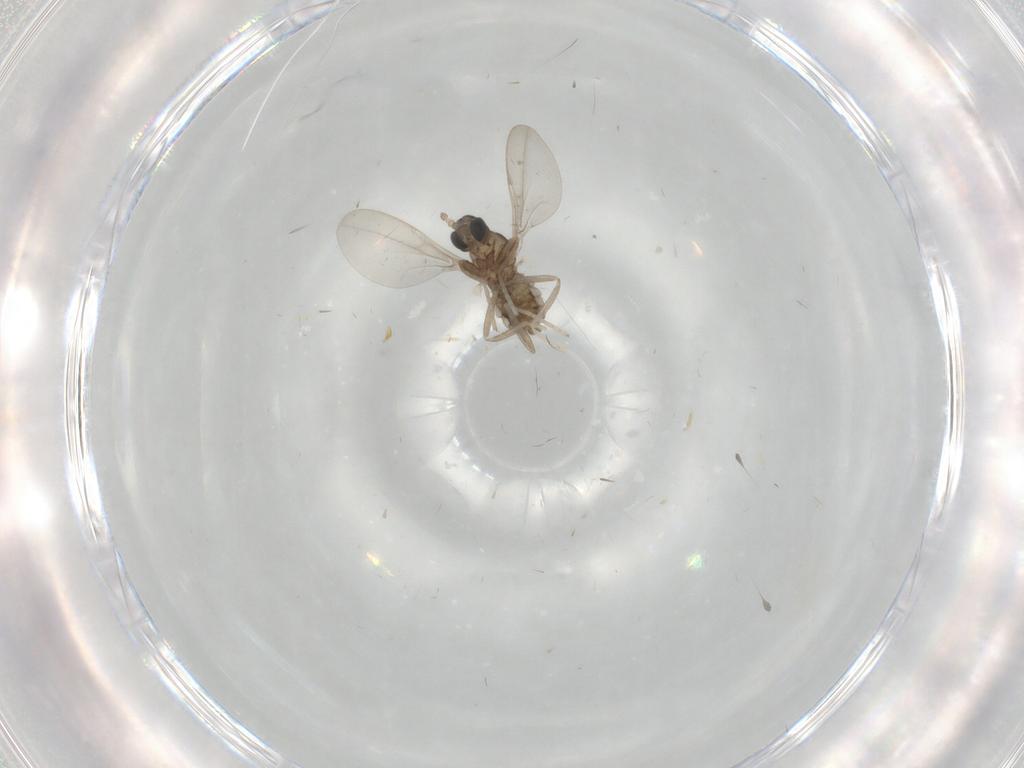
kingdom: Animalia
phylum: Arthropoda
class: Insecta
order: Diptera
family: Cecidomyiidae
